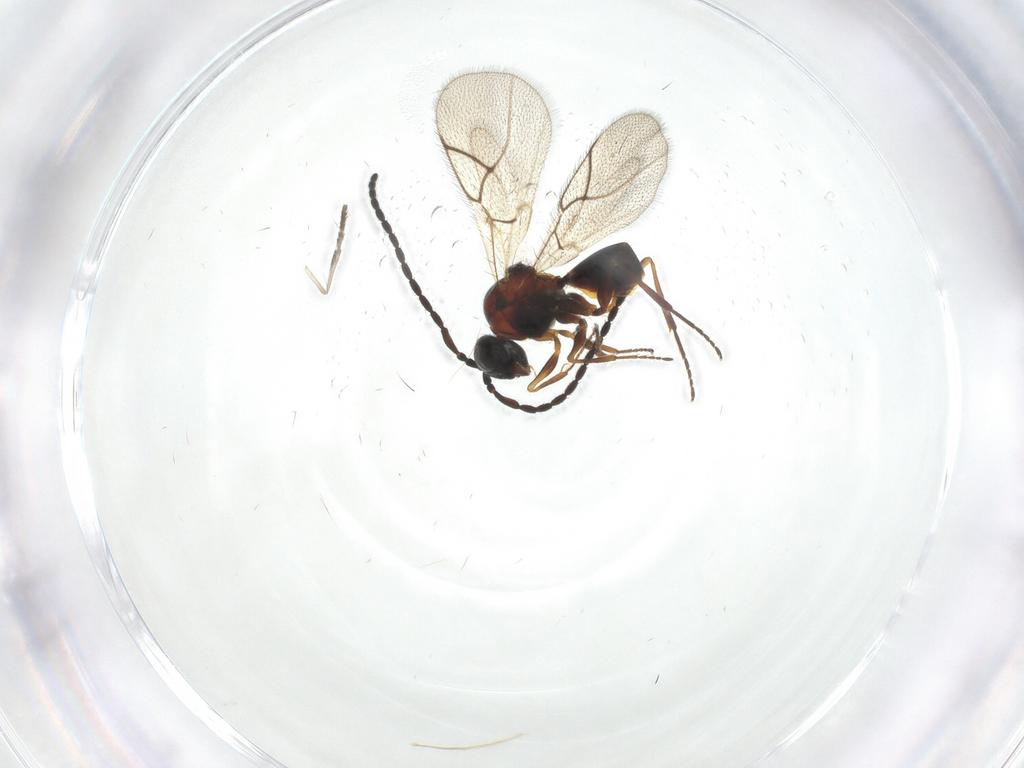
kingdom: Animalia
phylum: Arthropoda
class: Insecta
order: Hymenoptera
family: Figitidae
